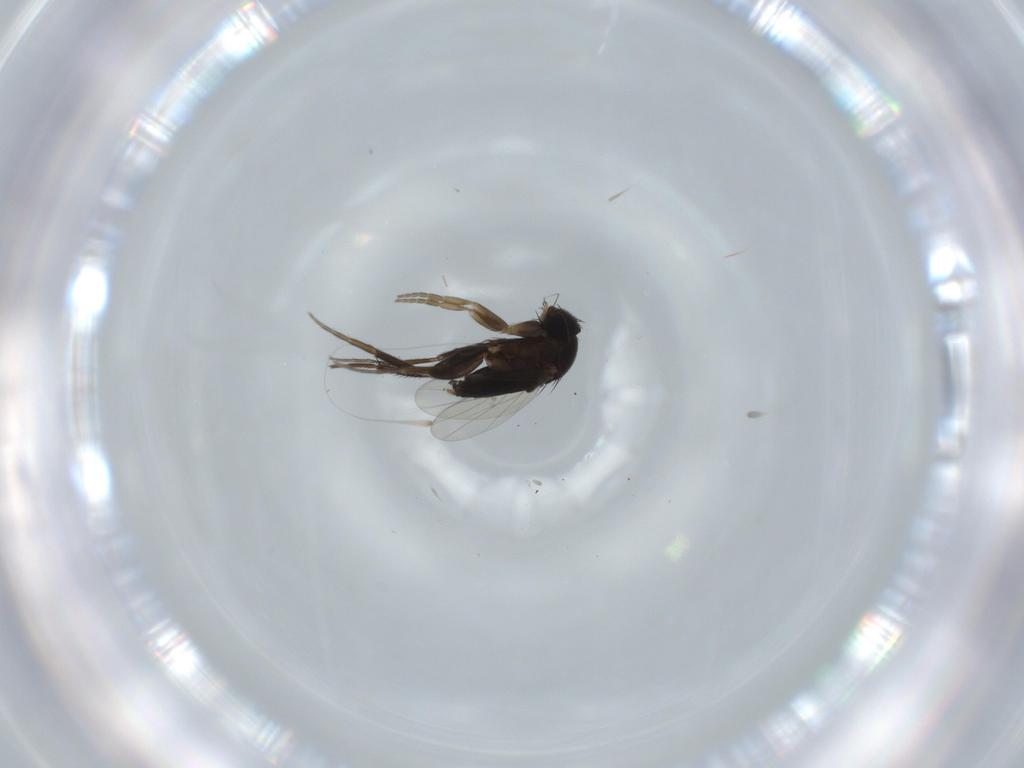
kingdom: Animalia
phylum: Arthropoda
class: Insecta
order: Diptera
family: Phoridae
